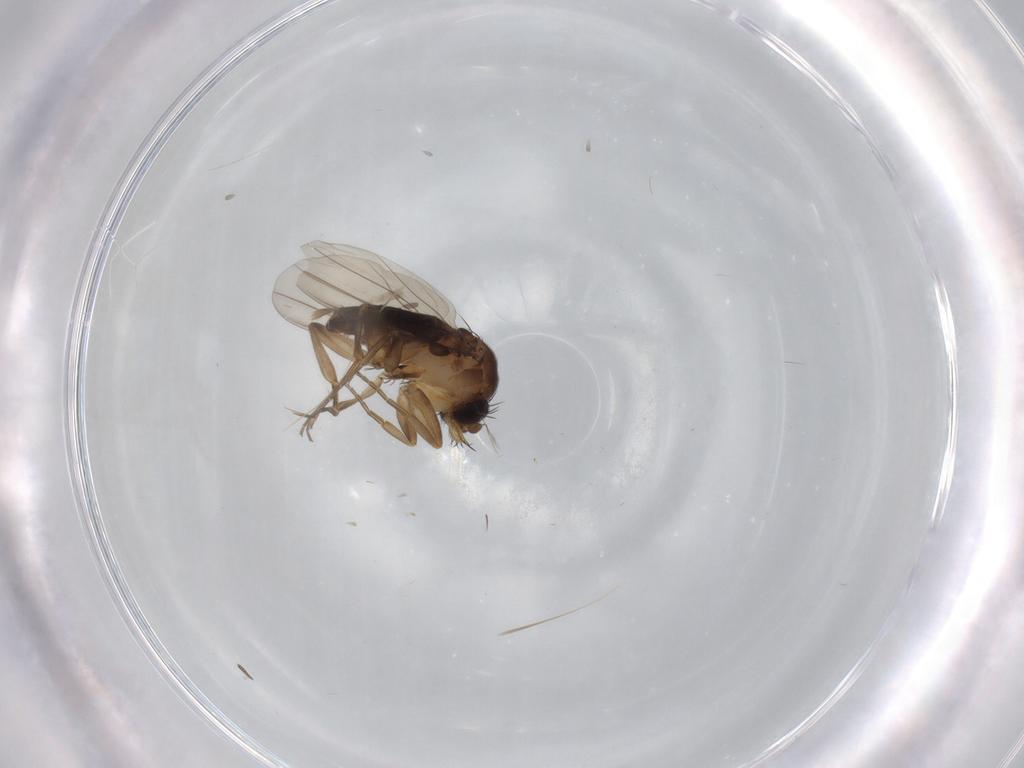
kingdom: Animalia
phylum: Arthropoda
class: Insecta
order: Diptera
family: Phoridae
